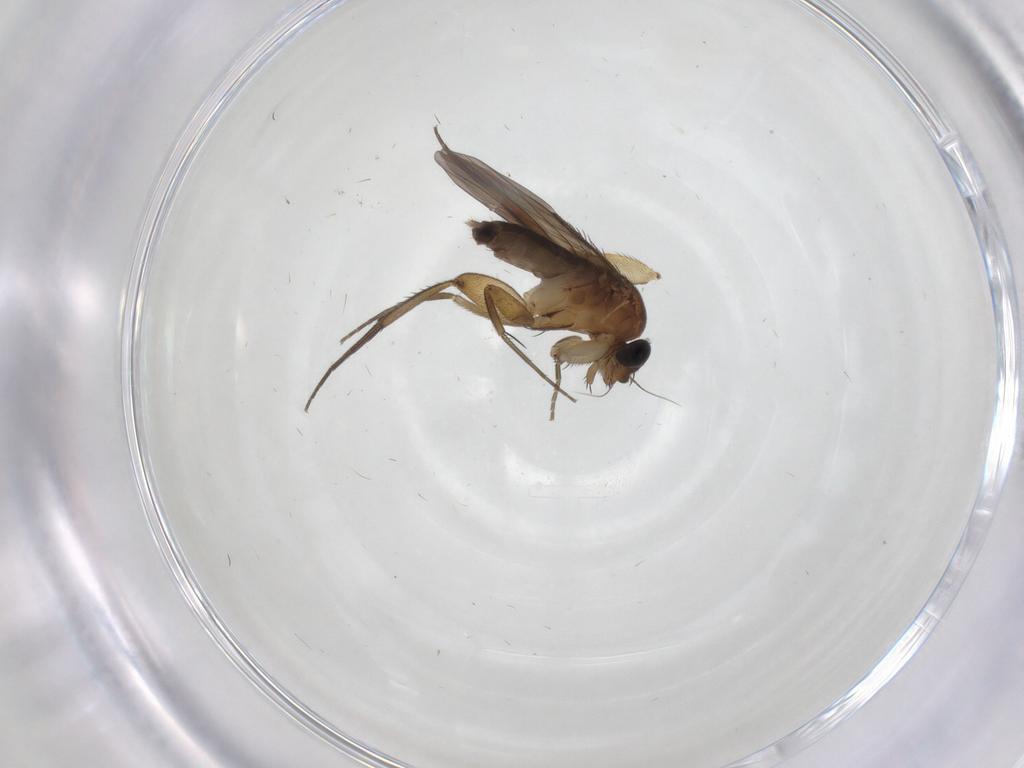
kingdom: Animalia
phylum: Arthropoda
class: Insecta
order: Diptera
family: Phoridae
